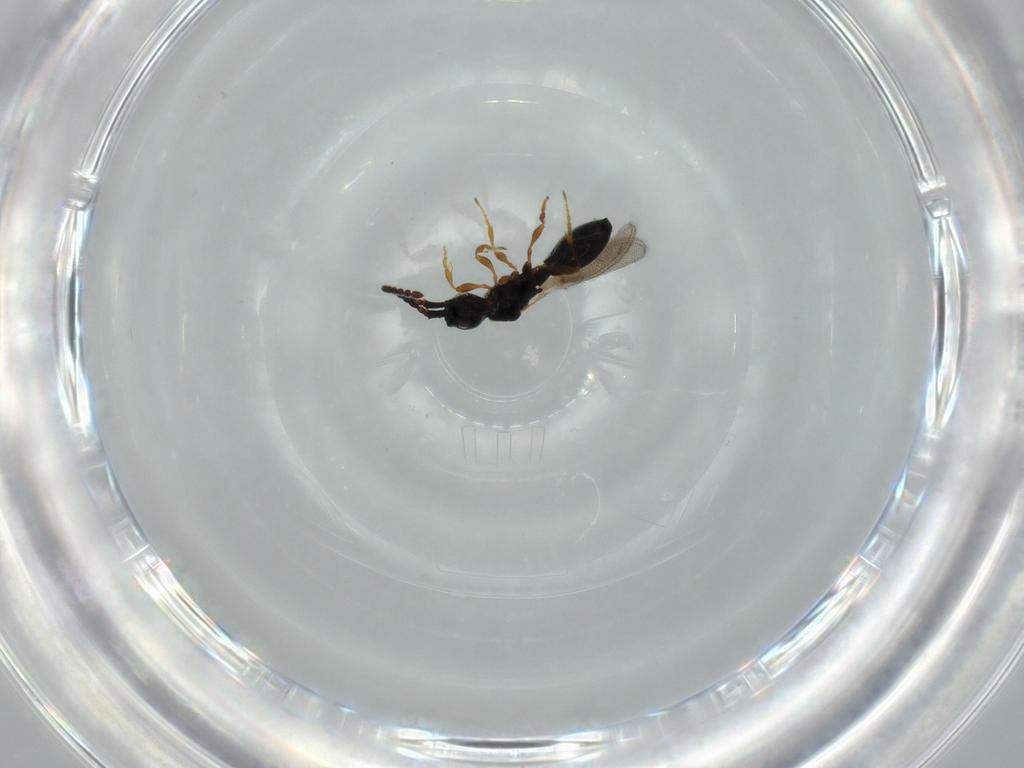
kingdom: Animalia
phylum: Arthropoda
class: Insecta
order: Hymenoptera
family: Diapriidae
